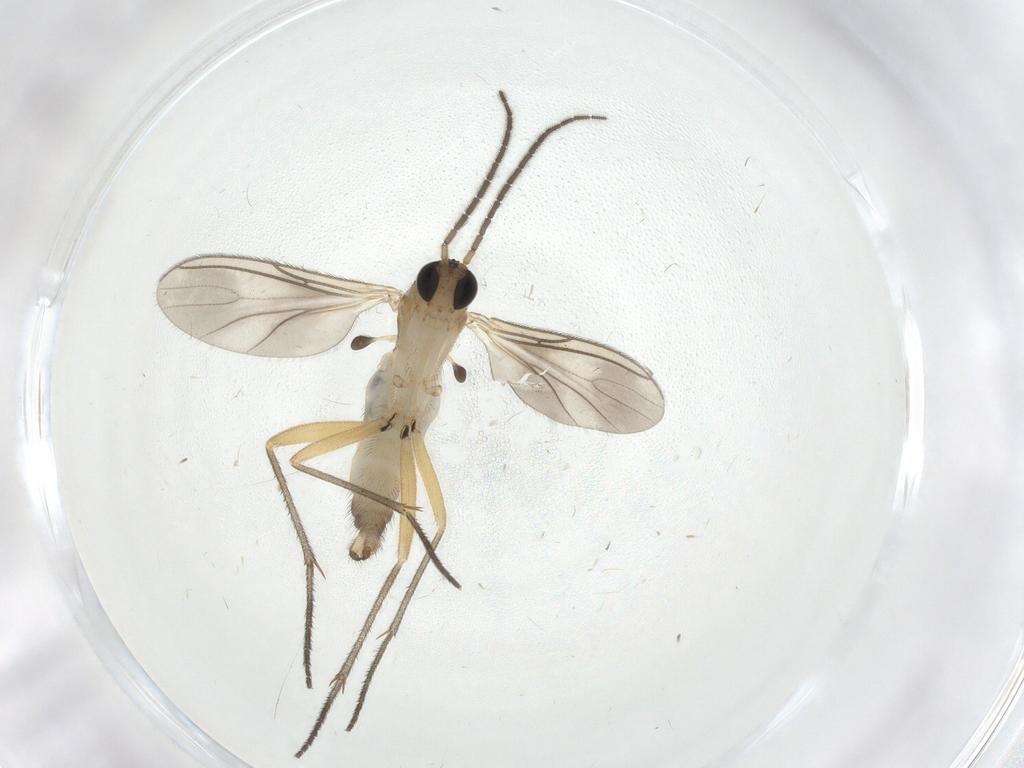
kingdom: Animalia
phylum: Arthropoda
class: Insecta
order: Diptera
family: Sciaridae
